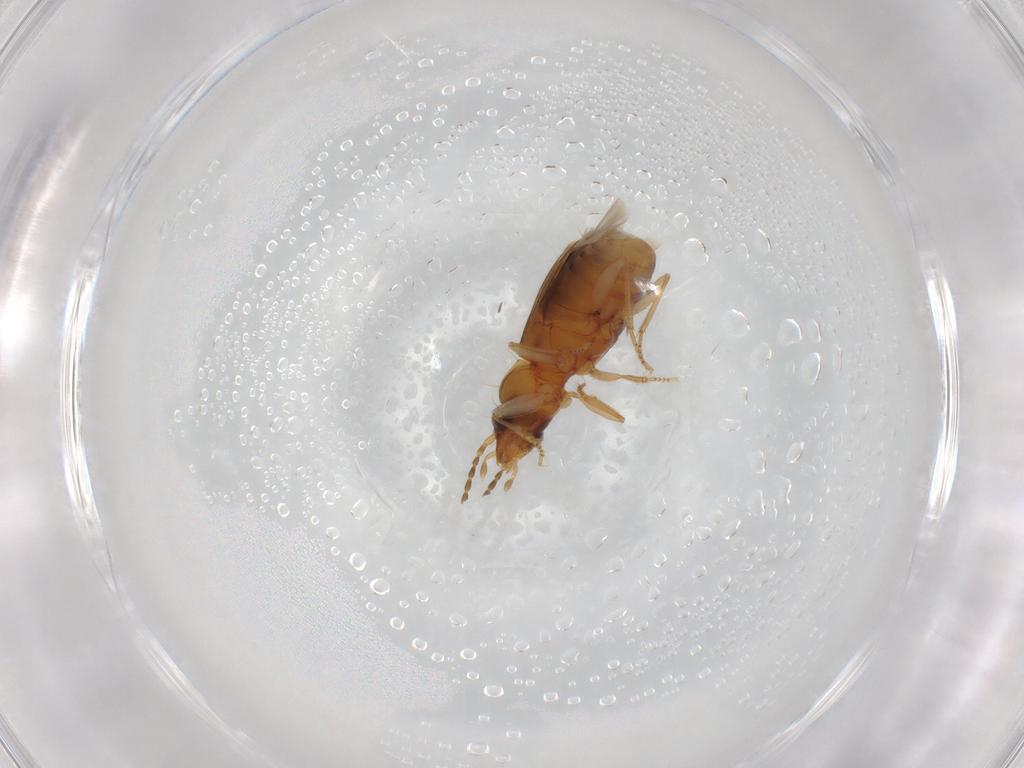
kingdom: Animalia
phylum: Arthropoda
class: Insecta
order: Coleoptera
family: Carabidae
